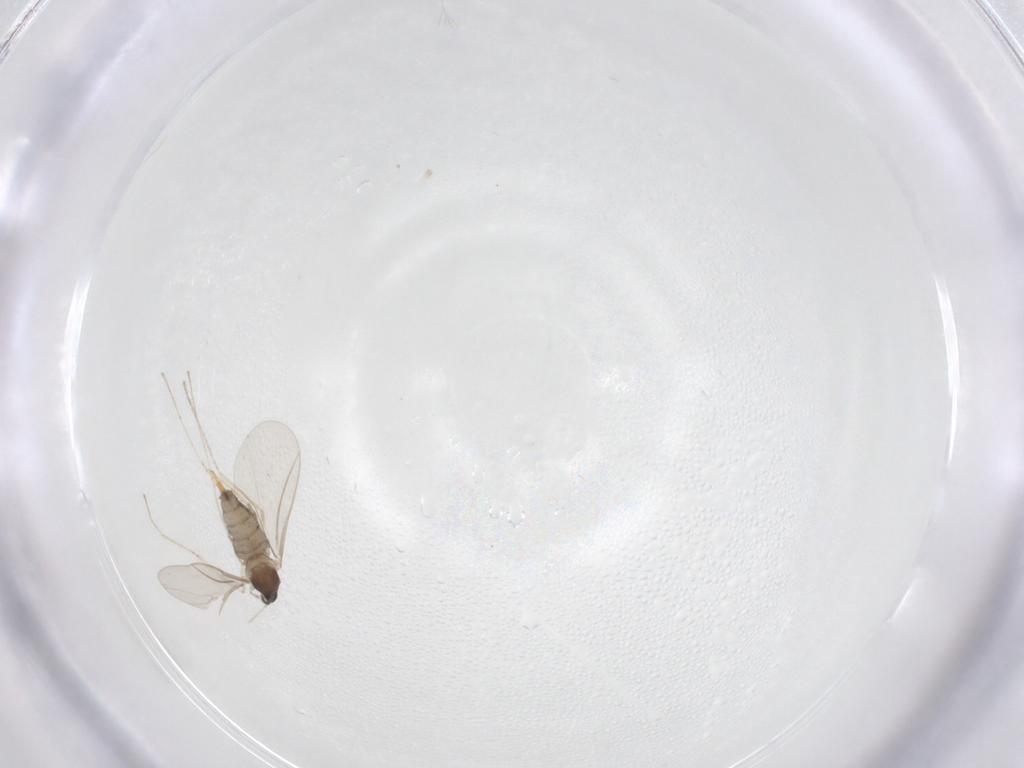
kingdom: Animalia
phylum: Arthropoda
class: Insecta
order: Diptera
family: Cecidomyiidae
